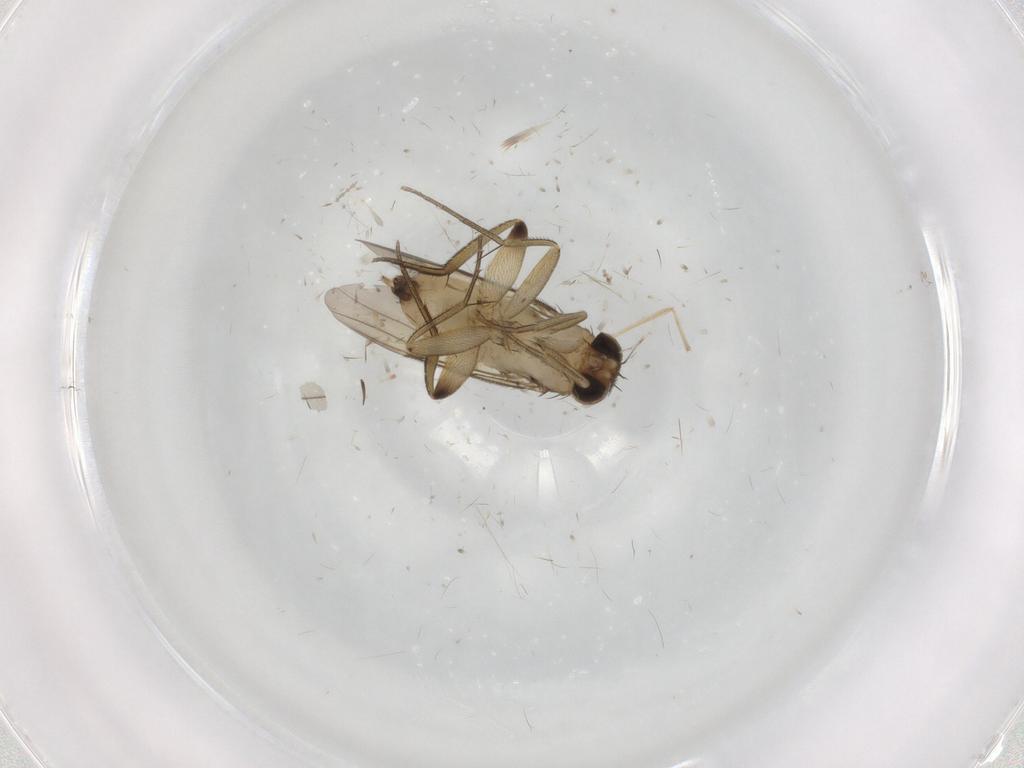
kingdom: Animalia
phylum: Arthropoda
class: Insecta
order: Diptera
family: Phoridae
